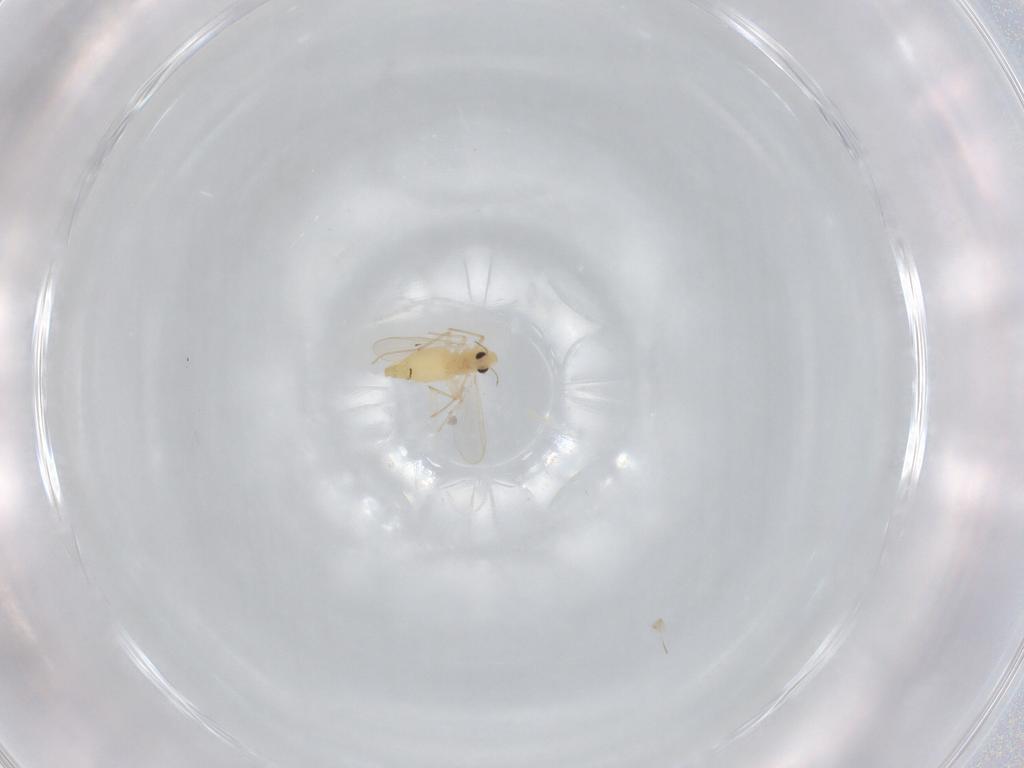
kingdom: Animalia
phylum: Arthropoda
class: Insecta
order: Diptera
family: Chironomidae
